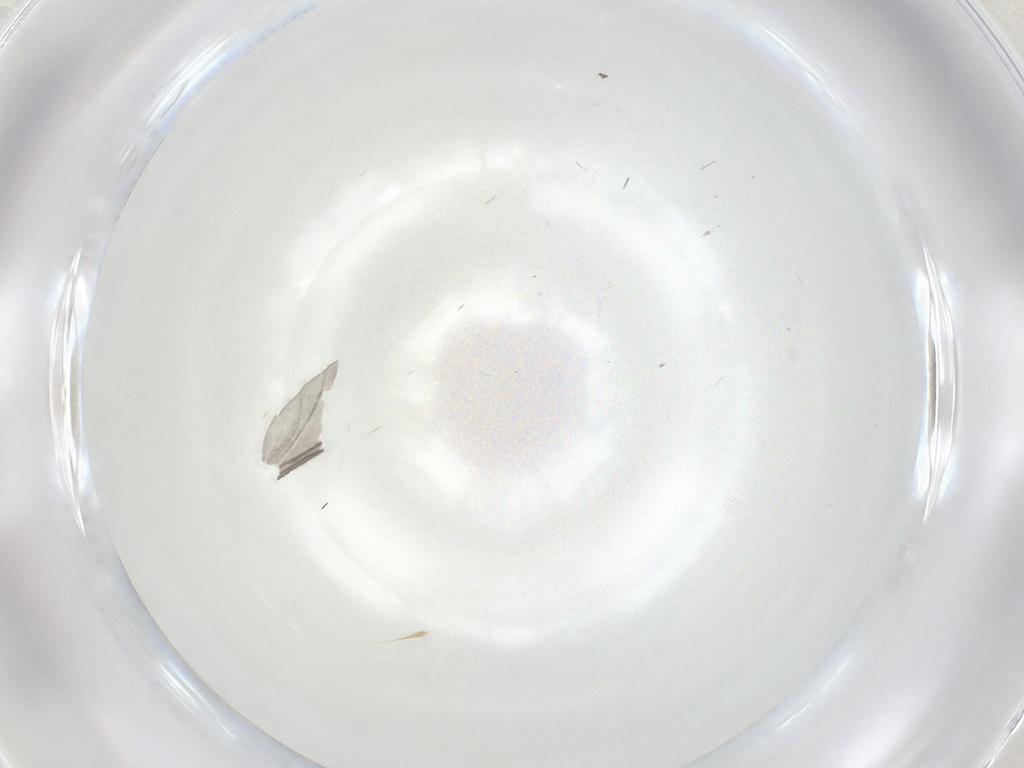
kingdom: Animalia
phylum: Arthropoda
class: Insecta
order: Diptera
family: Sciaridae
